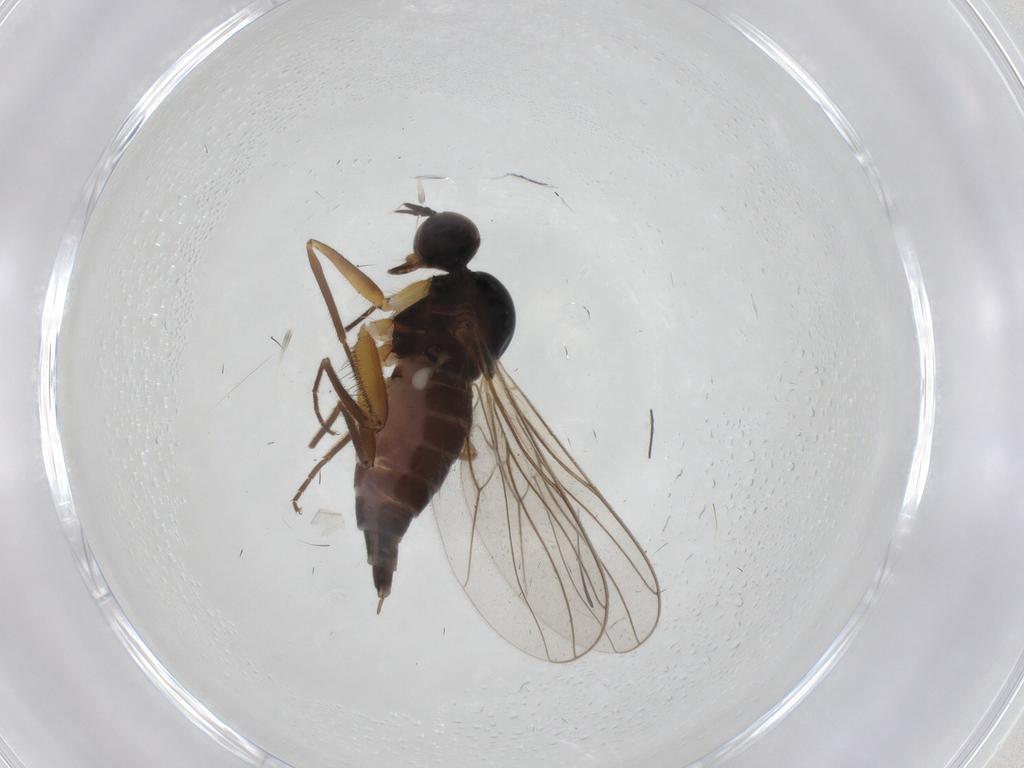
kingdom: Animalia
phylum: Arthropoda
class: Insecta
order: Diptera
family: Hybotidae
